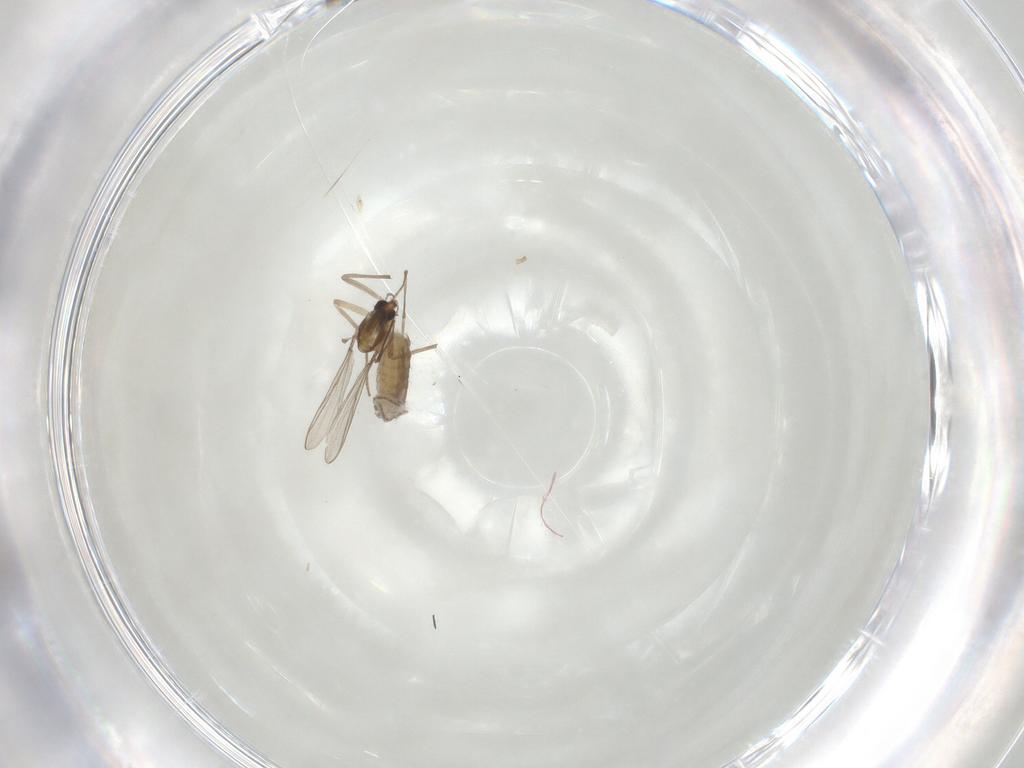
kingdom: Animalia
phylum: Arthropoda
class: Insecta
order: Diptera
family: Chironomidae
